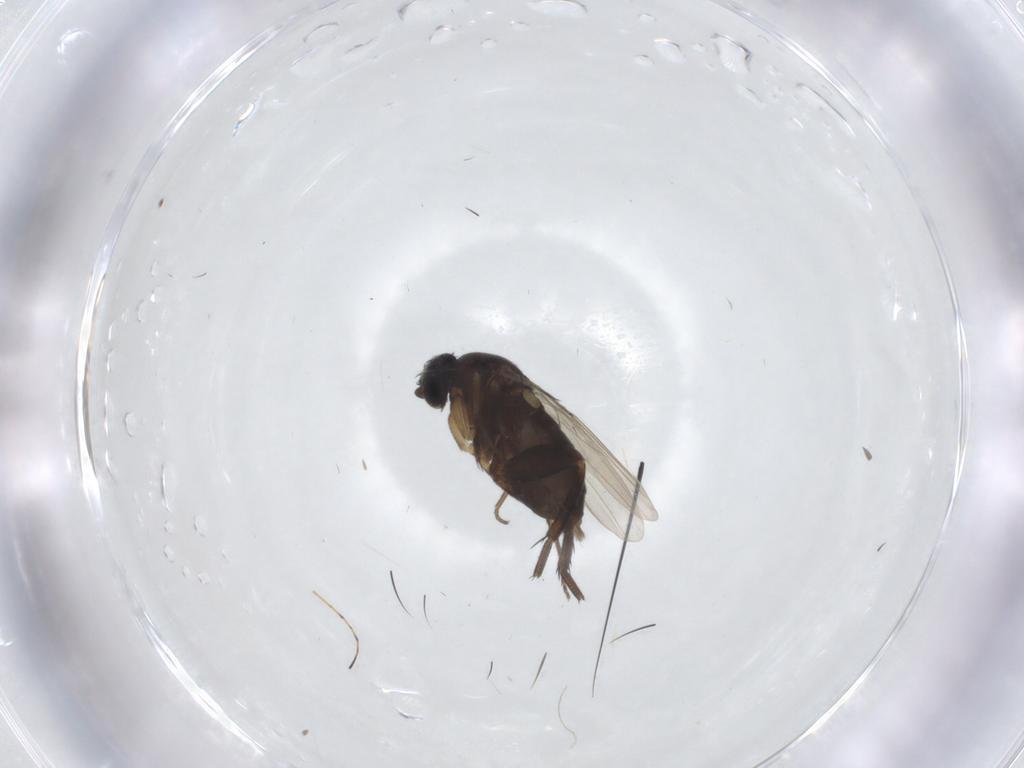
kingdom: Animalia
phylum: Arthropoda
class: Insecta
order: Diptera
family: Phoridae
